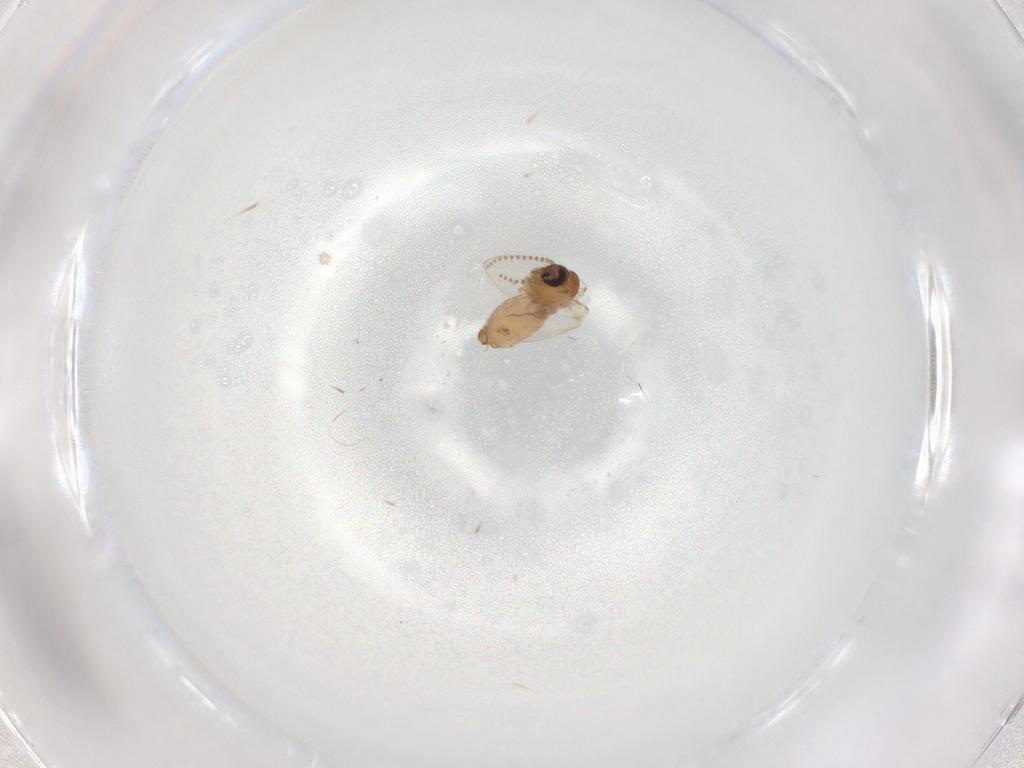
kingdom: Animalia
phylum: Arthropoda
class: Insecta
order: Diptera
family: Psychodidae
